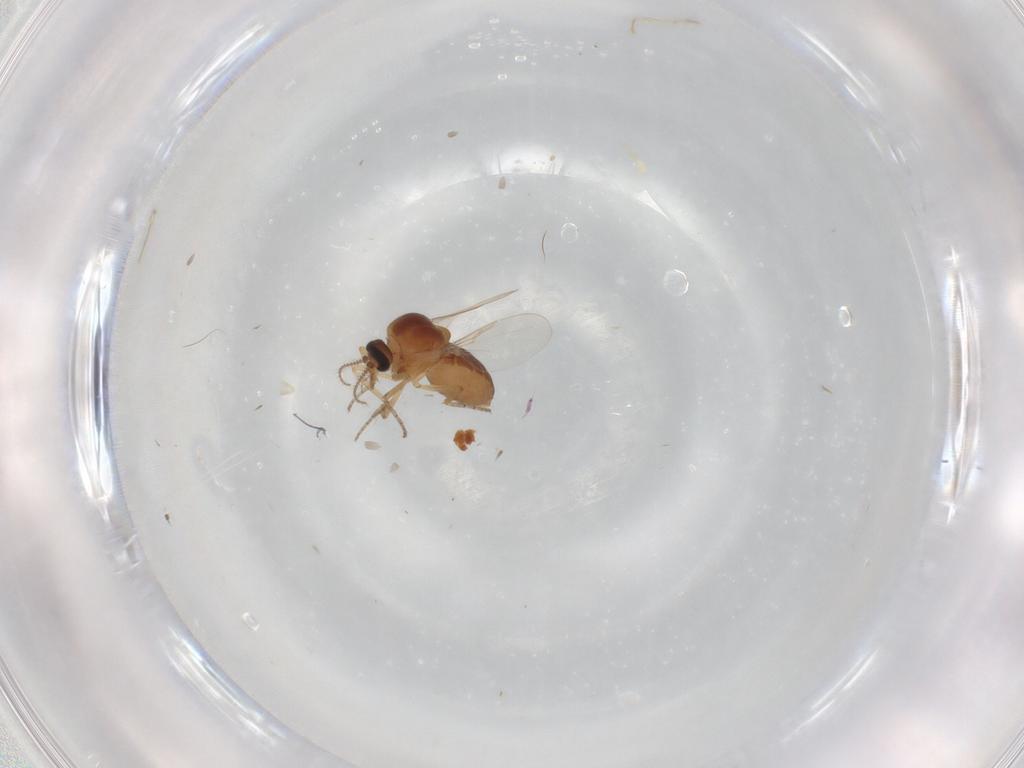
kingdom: Animalia
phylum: Arthropoda
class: Insecta
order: Diptera
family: Ceratopogonidae
